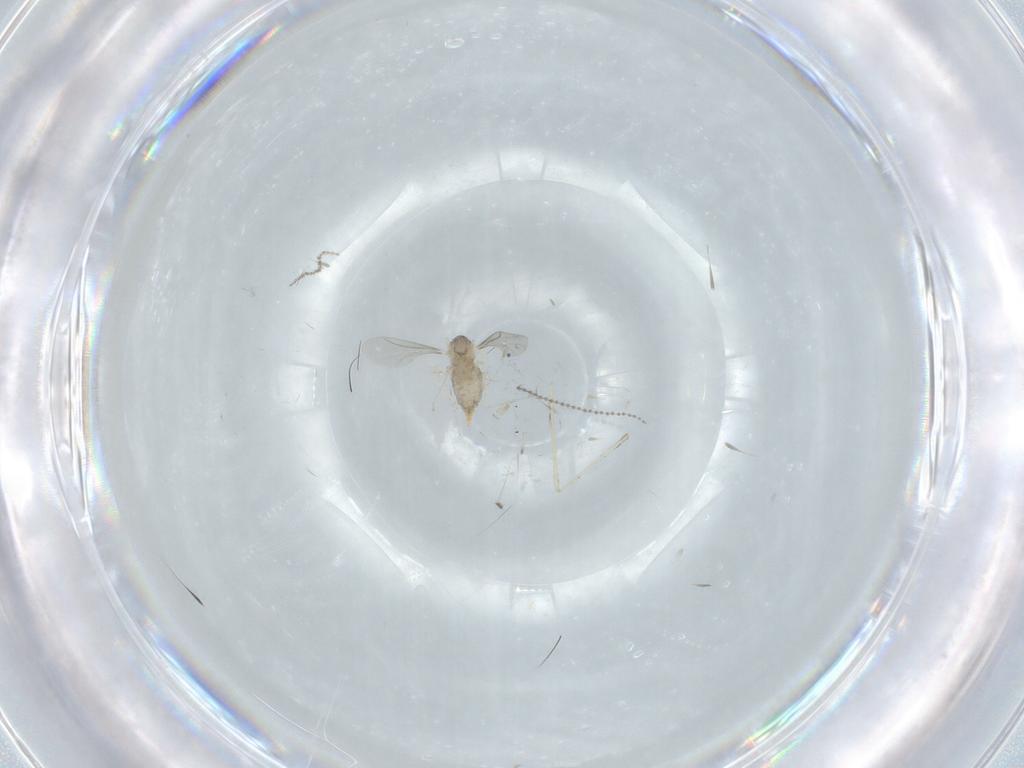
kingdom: Animalia
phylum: Arthropoda
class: Insecta
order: Diptera
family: Cecidomyiidae
